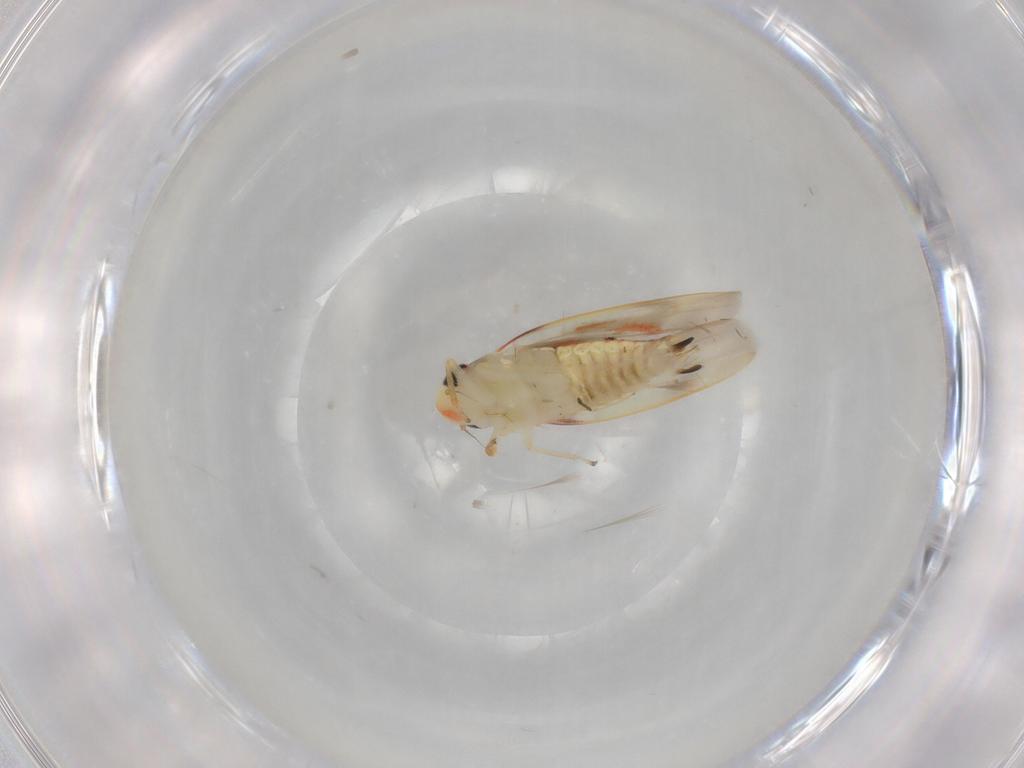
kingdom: Animalia
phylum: Arthropoda
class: Insecta
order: Hemiptera
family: Cicadellidae
